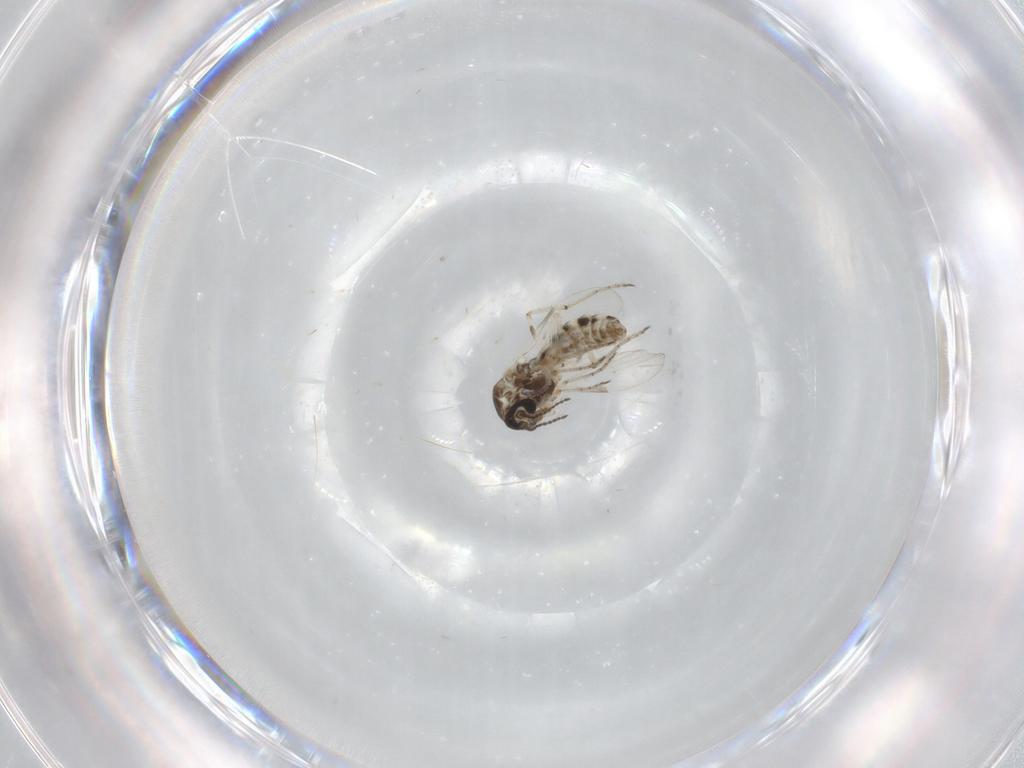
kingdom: Animalia
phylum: Arthropoda
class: Insecta
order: Diptera
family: Ceratopogonidae
